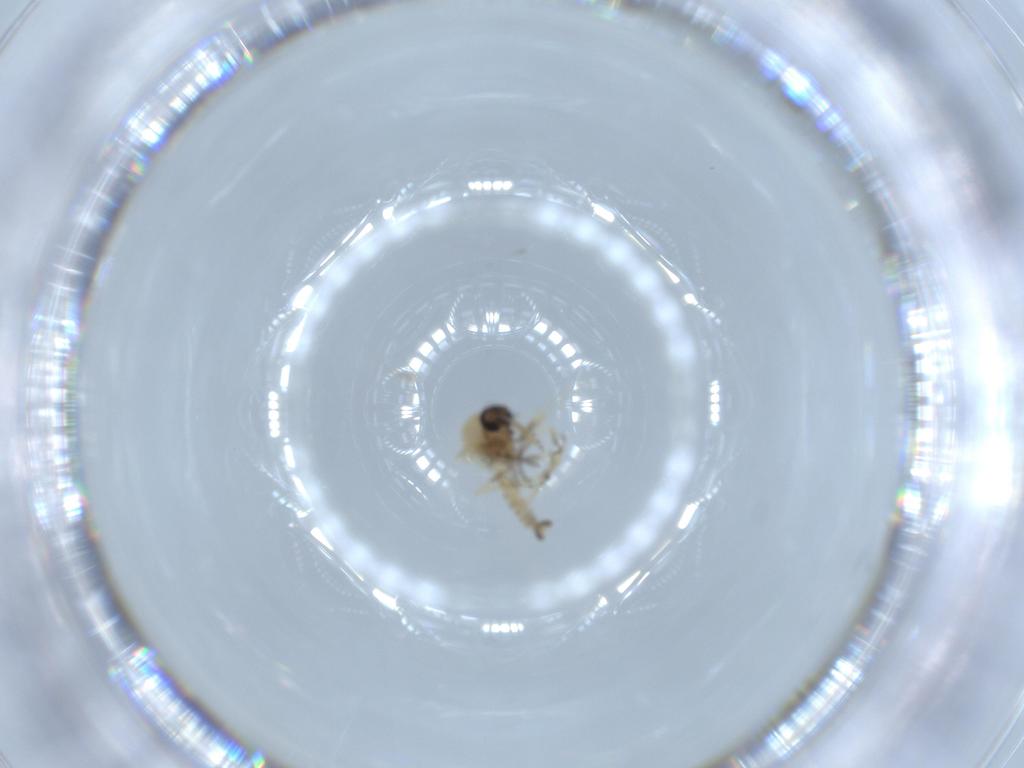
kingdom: Animalia
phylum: Arthropoda
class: Insecta
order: Diptera
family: Ceratopogonidae
